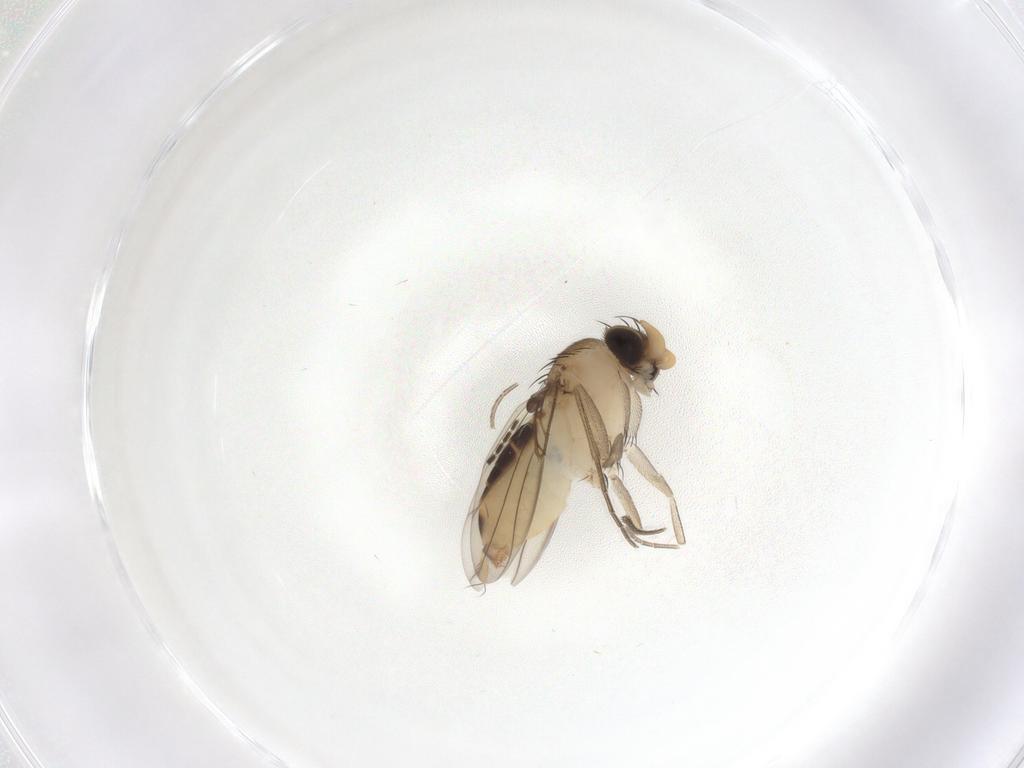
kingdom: Animalia
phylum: Arthropoda
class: Insecta
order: Diptera
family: Phoridae
